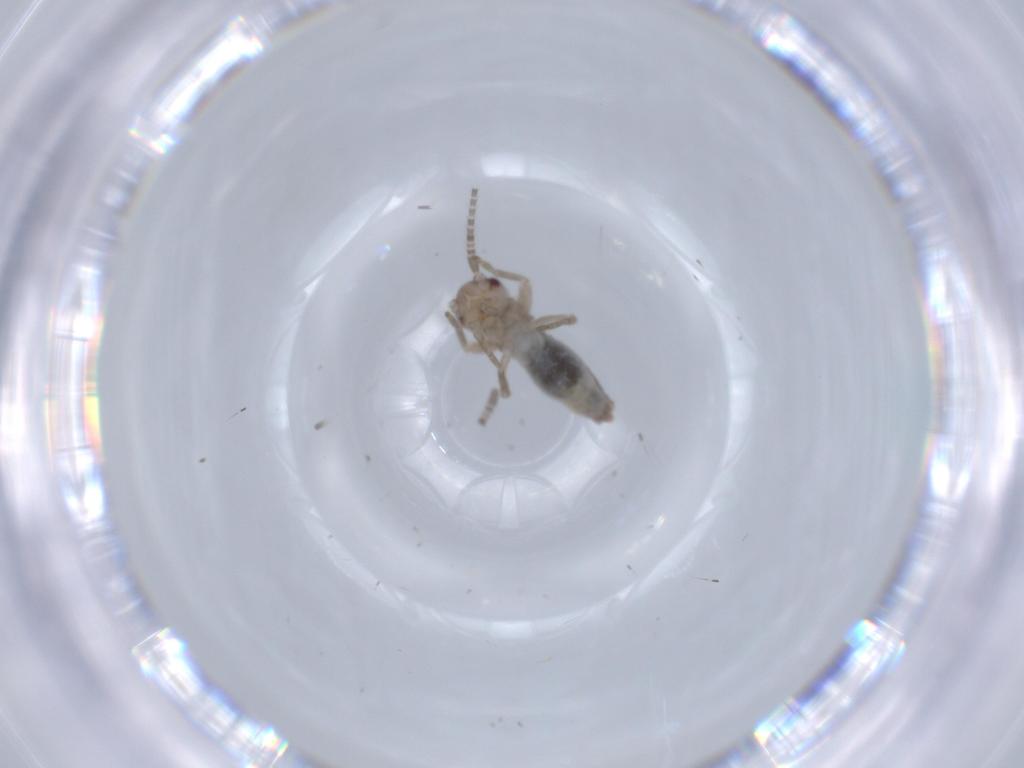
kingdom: Animalia
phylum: Arthropoda
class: Insecta
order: Orthoptera
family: Gryllidae
